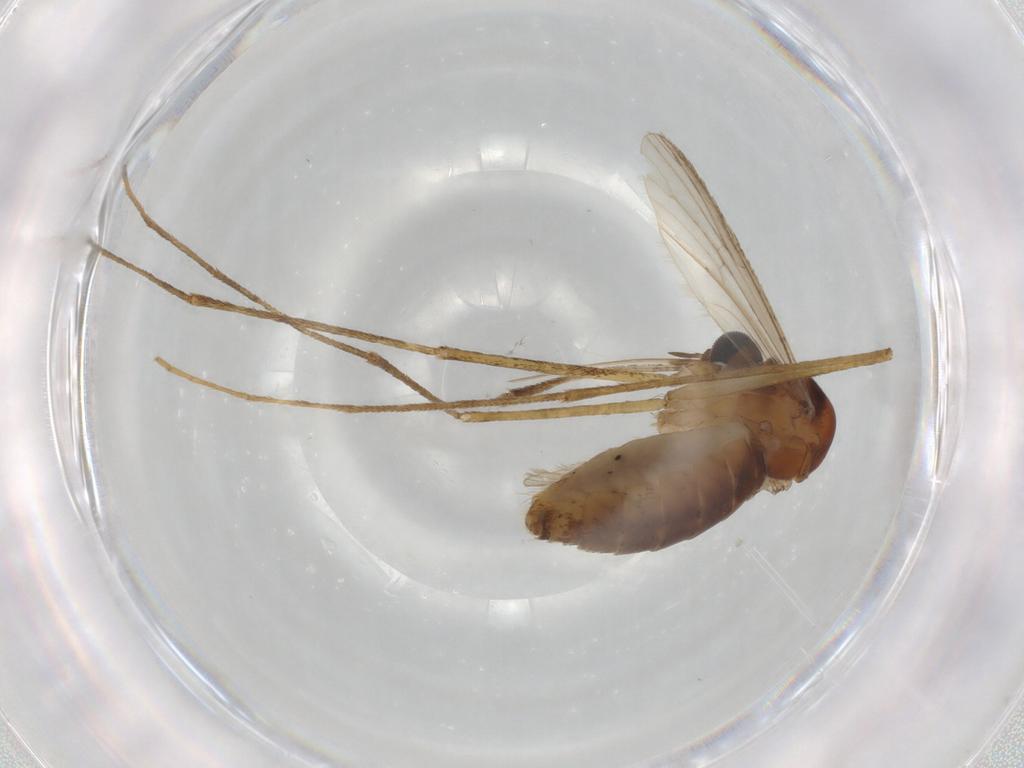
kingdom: Animalia
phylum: Arthropoda
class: Insecta
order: Diptera
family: Culicidae
